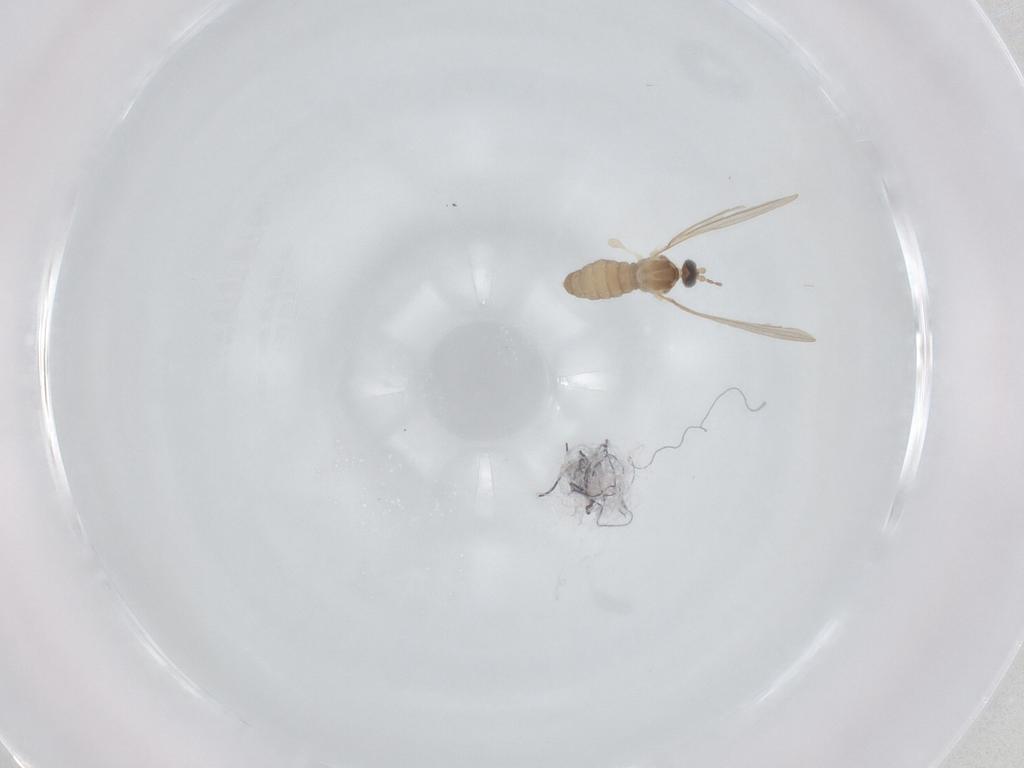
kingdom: Animalia
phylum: Arthropoda
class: Insecta
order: Diptera
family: Cecidomyiidae
